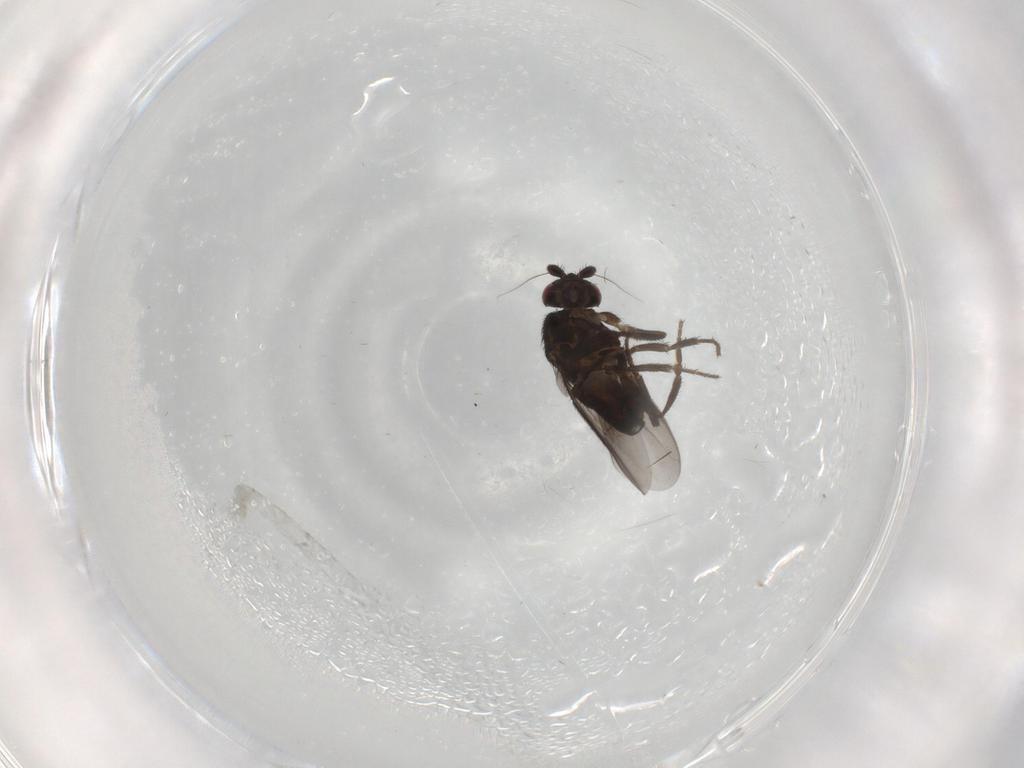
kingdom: Animalia
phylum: Arthropoda
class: Insecta
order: Diptera
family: Sphaeroceridae
